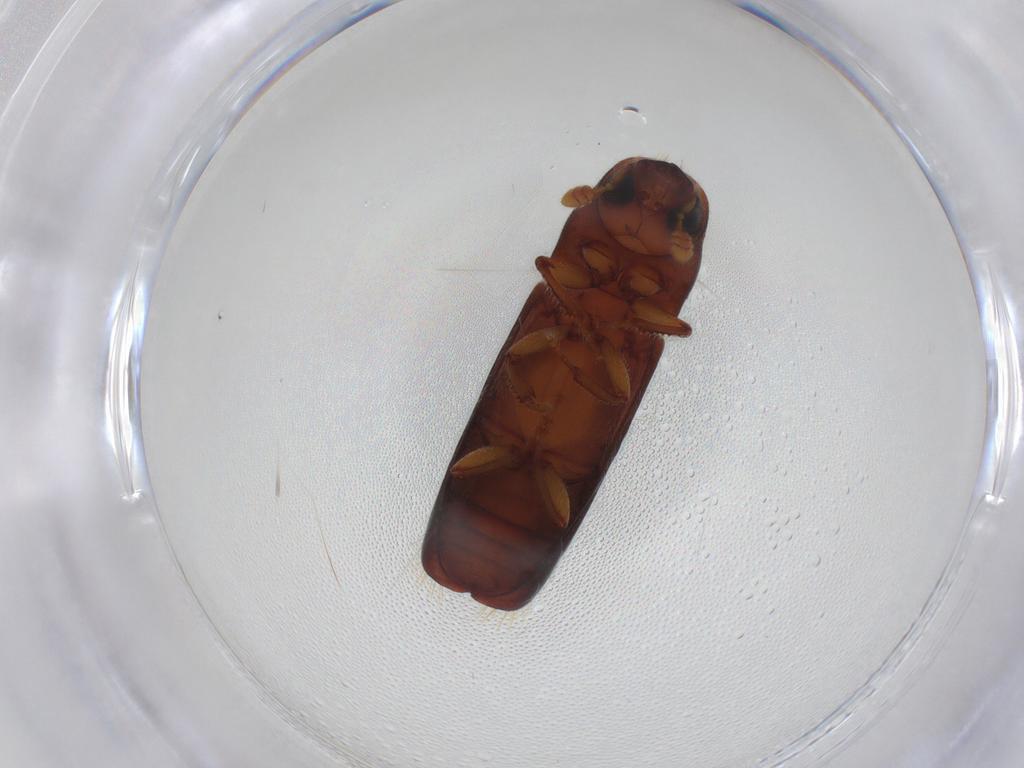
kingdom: Animalia
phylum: Arthropoda
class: Insecta
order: Coleoptera
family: Curculionidae
